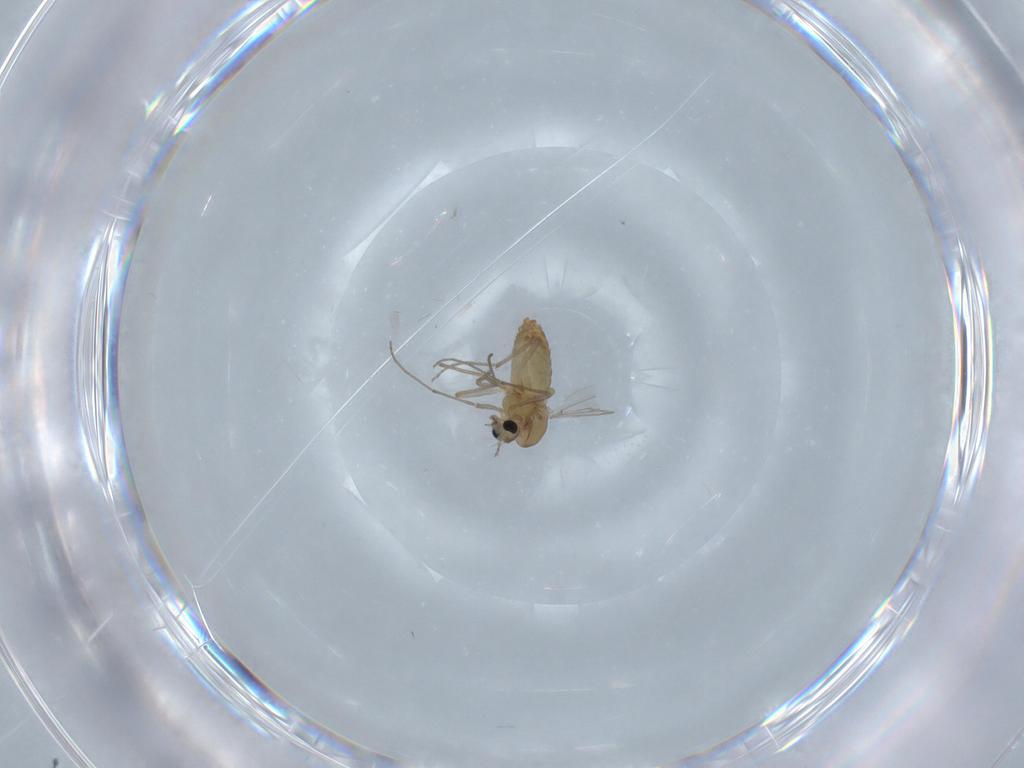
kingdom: Animalia
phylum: Arthropoda
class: Insecta
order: Diptera
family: Chironomidae
